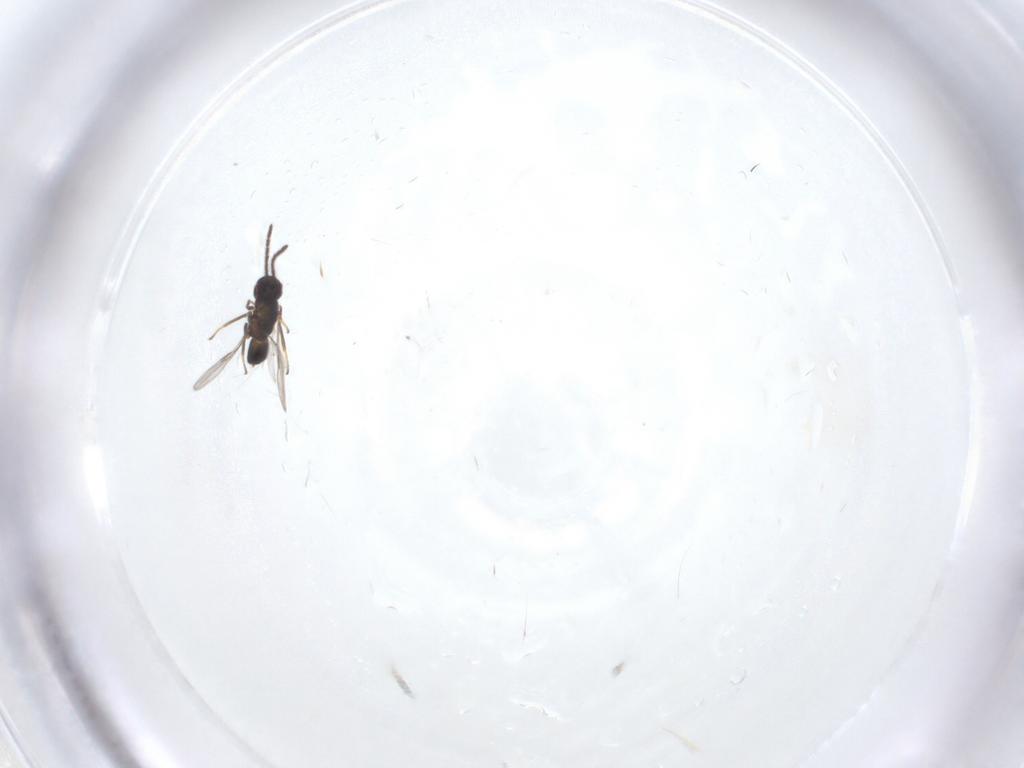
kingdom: Animalia
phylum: Arthropoda
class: Insecta
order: Hymenoptera
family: Encyrtidae
